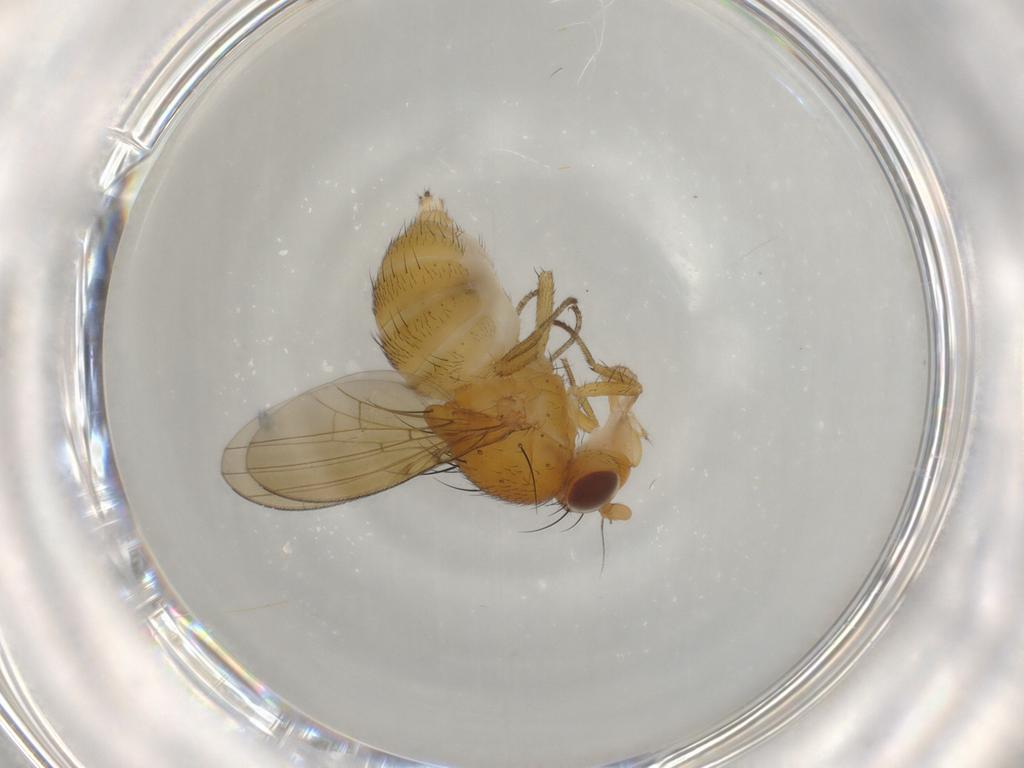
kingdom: Animalia
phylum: Arthropoda
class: Insecta
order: Diptera
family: Lauxaniidae
